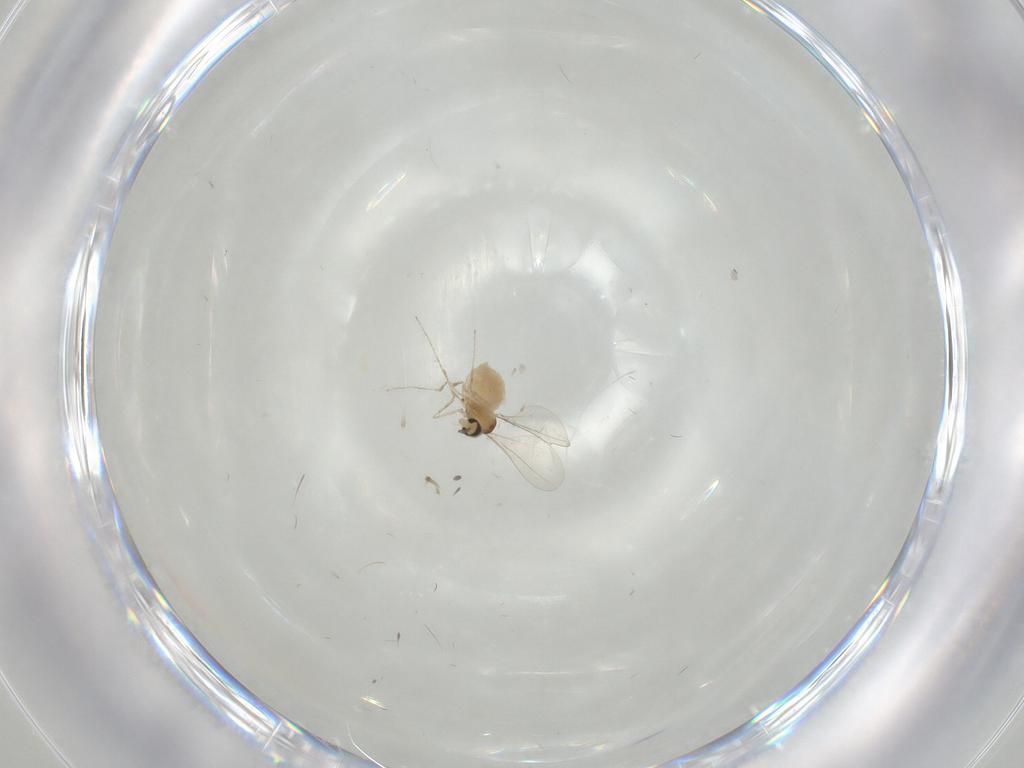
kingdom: Animalia
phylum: Arthropoda
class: Insecta
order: Diptera
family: Cecidomyiidae
